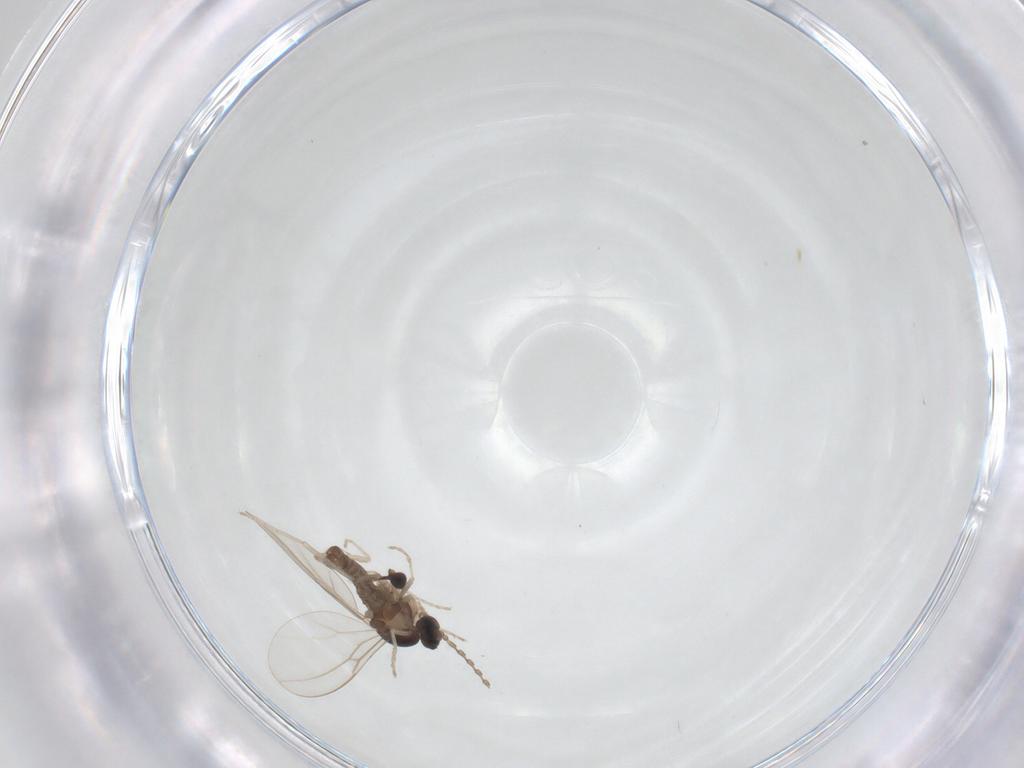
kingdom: Animalia
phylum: Arthropoda
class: Insecta
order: Diptera
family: Cecidomyiidae
